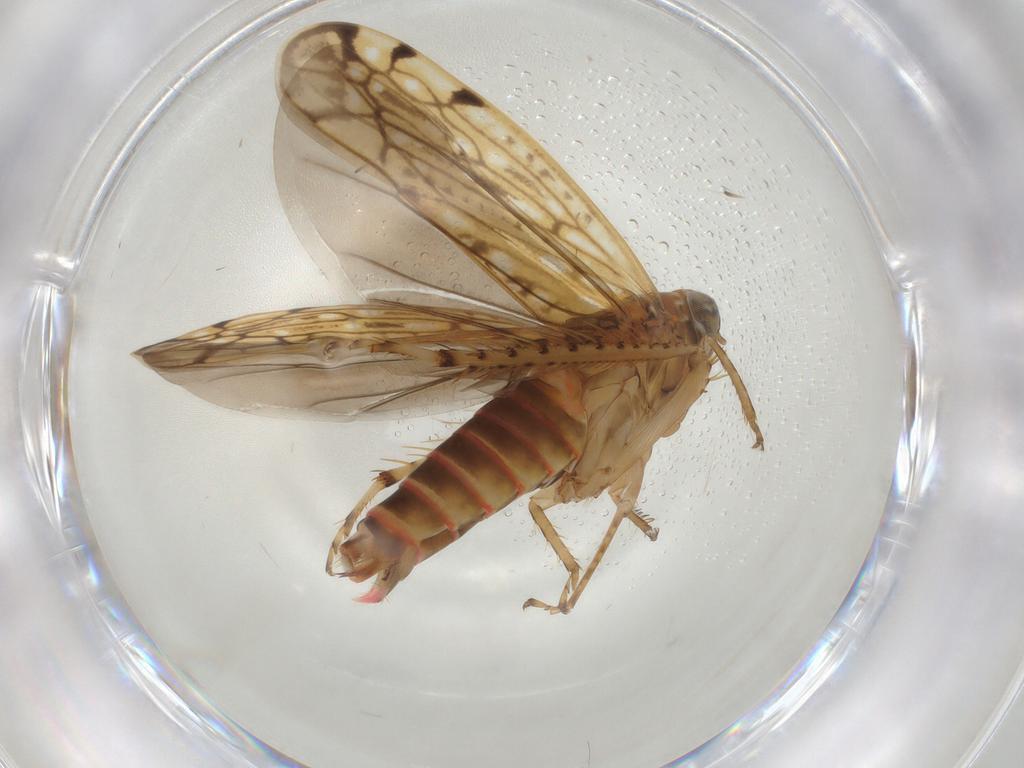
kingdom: Animalia
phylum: Arthropoda
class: Insecta
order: Hemiptera
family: Cicadellidae
